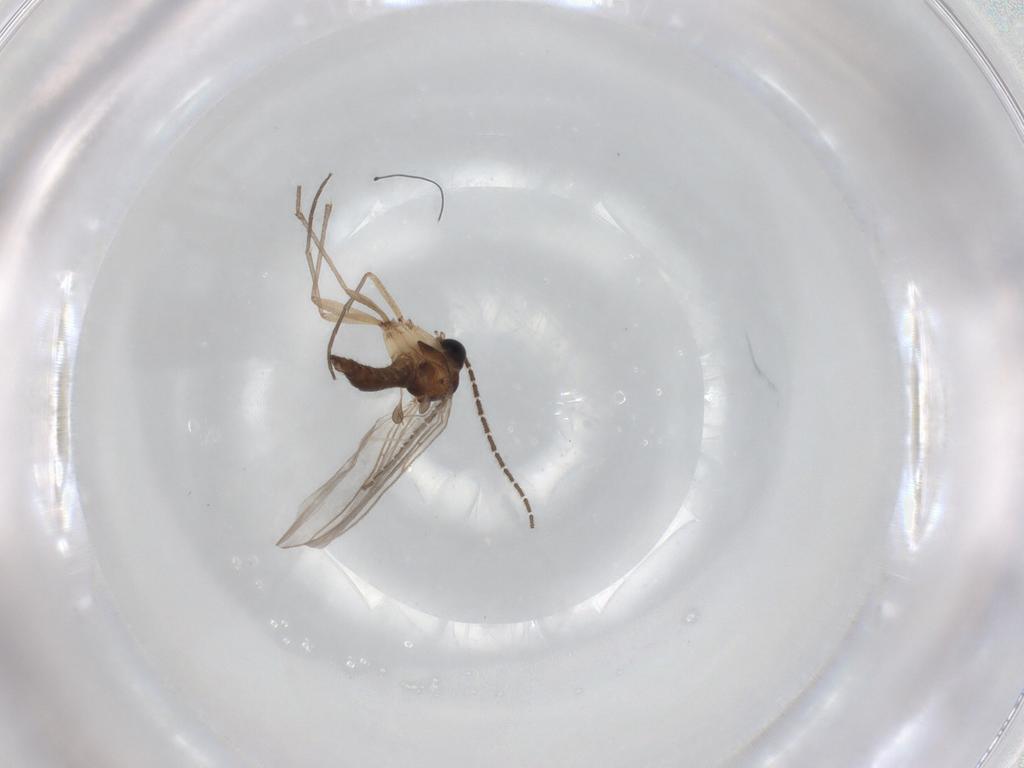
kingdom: Animalia
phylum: Arthropoda
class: Insecta
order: Diptera
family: Sciaridae
